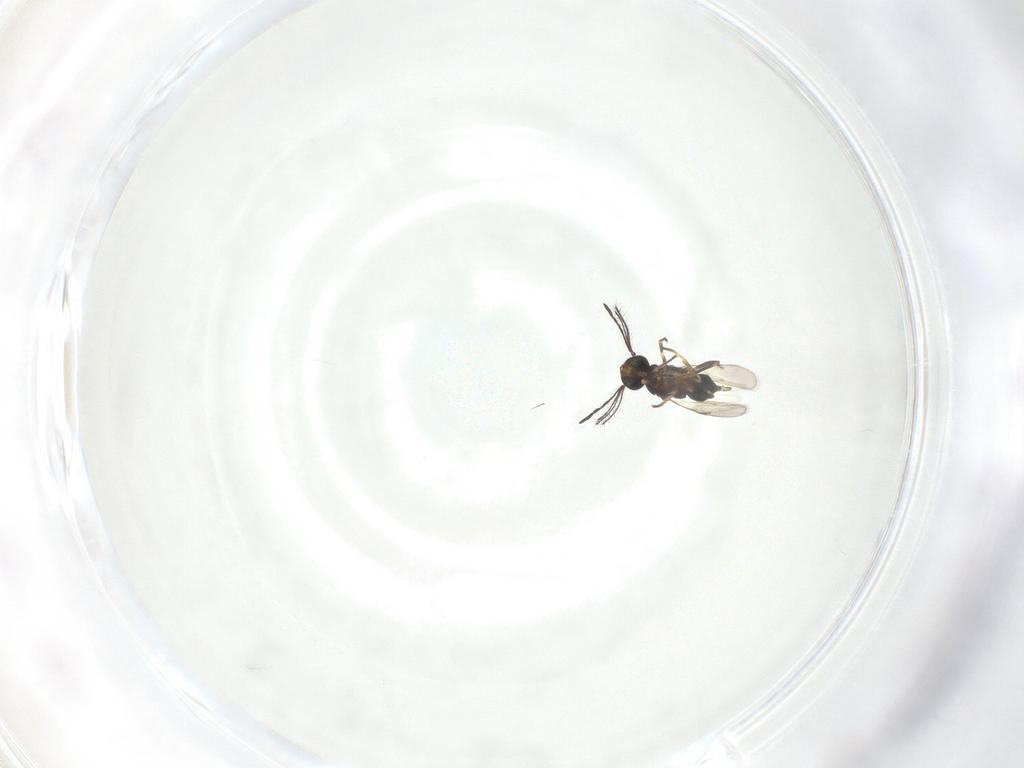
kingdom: Animalia
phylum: Arthropoda
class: Insecta
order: Hymenoptera
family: Encyrtidae
